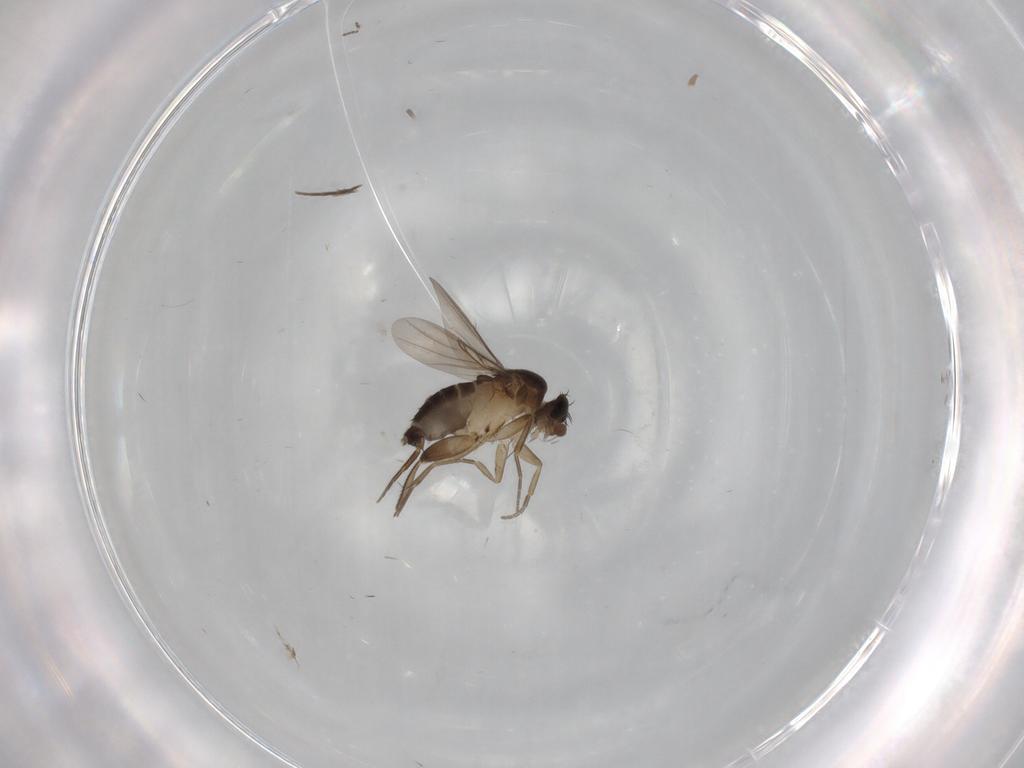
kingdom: Animalia
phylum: Arthropoda
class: Insecta
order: Diptera
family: Phoridae
